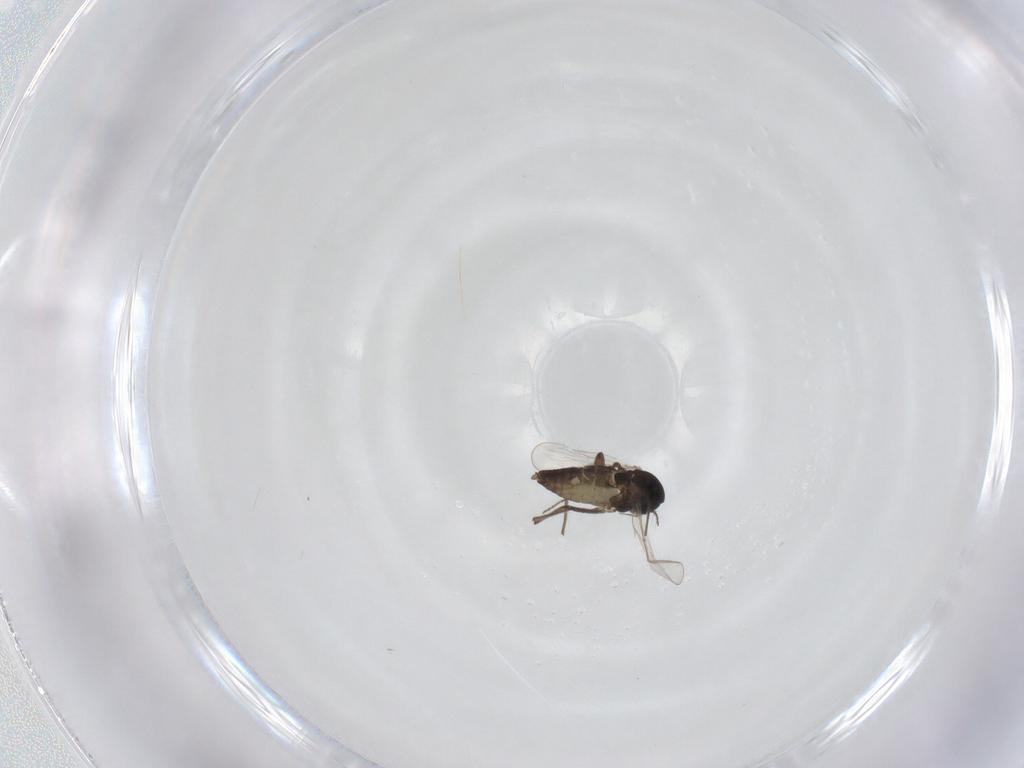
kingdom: Animalia
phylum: Arthropoda
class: Insecta
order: Diptera
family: Chironomidae
